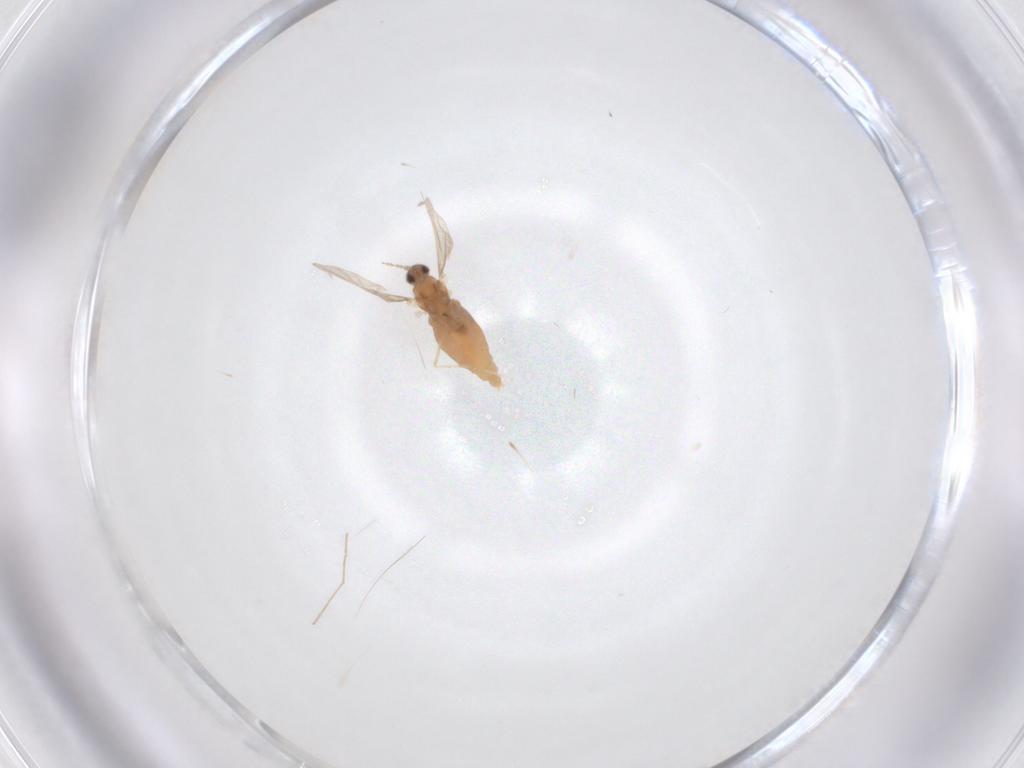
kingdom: Animalia
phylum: Arthropoda
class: Insecta
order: Diptera
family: Cecidomyiidae
